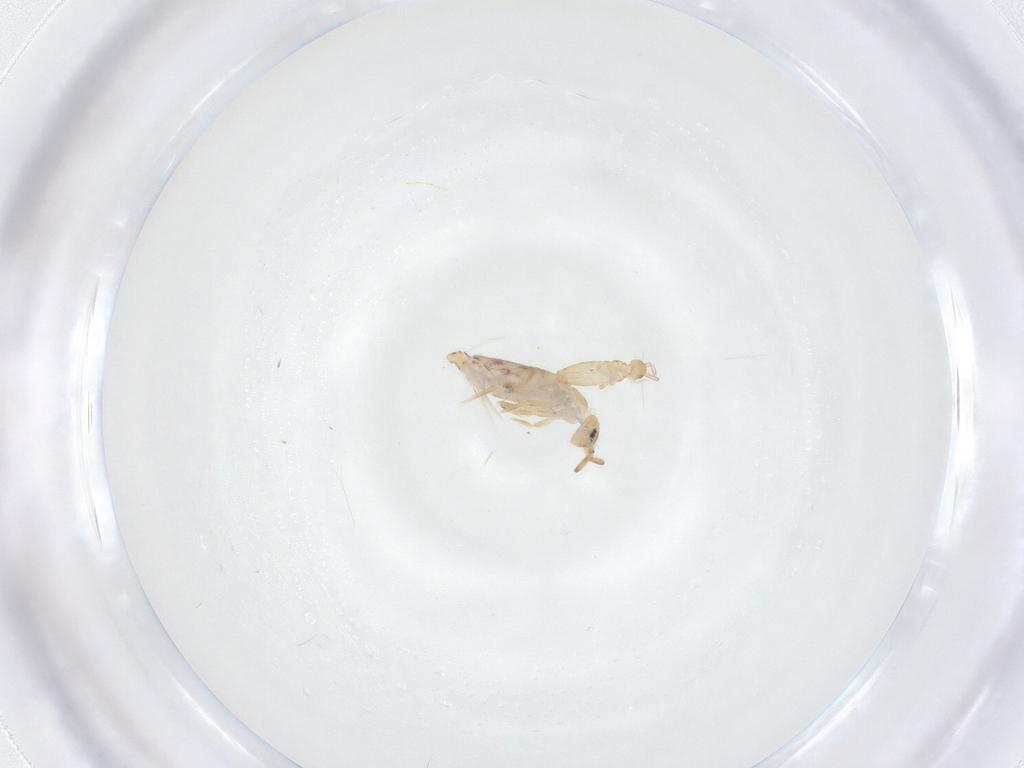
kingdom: Animalia
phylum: Arthropoda
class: Collembola
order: Entomobryomorpha
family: Entomobryidae
